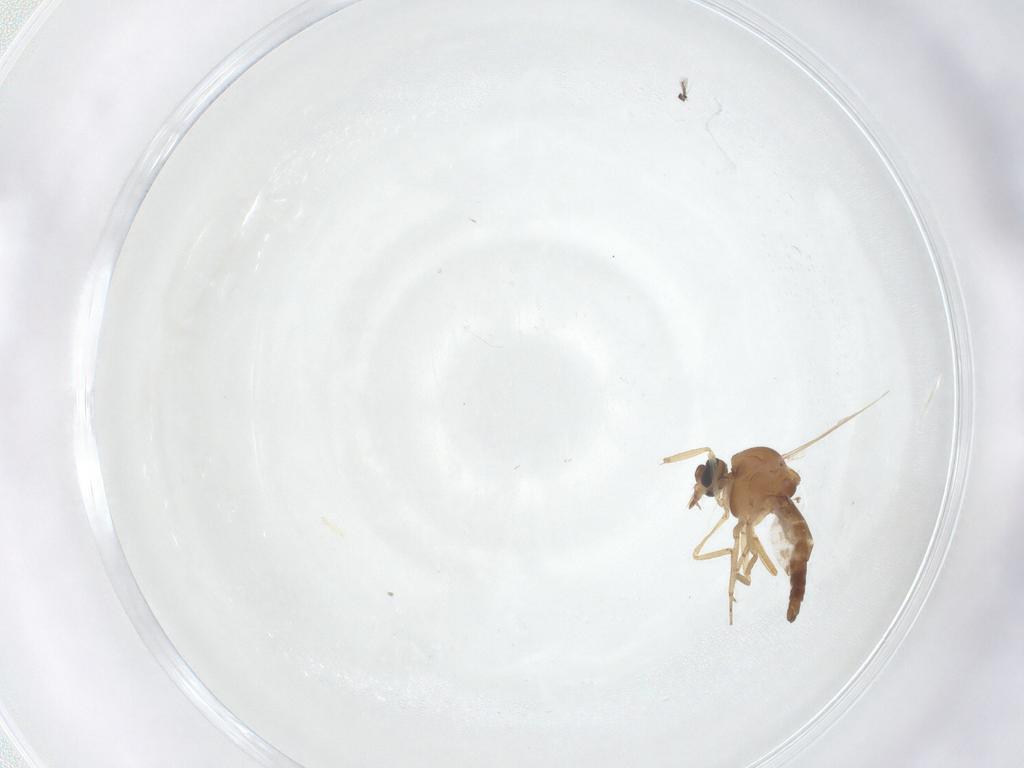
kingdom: Animalia
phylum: Arthropoda
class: Insecta
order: Diptera
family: Ceratopogonidae
